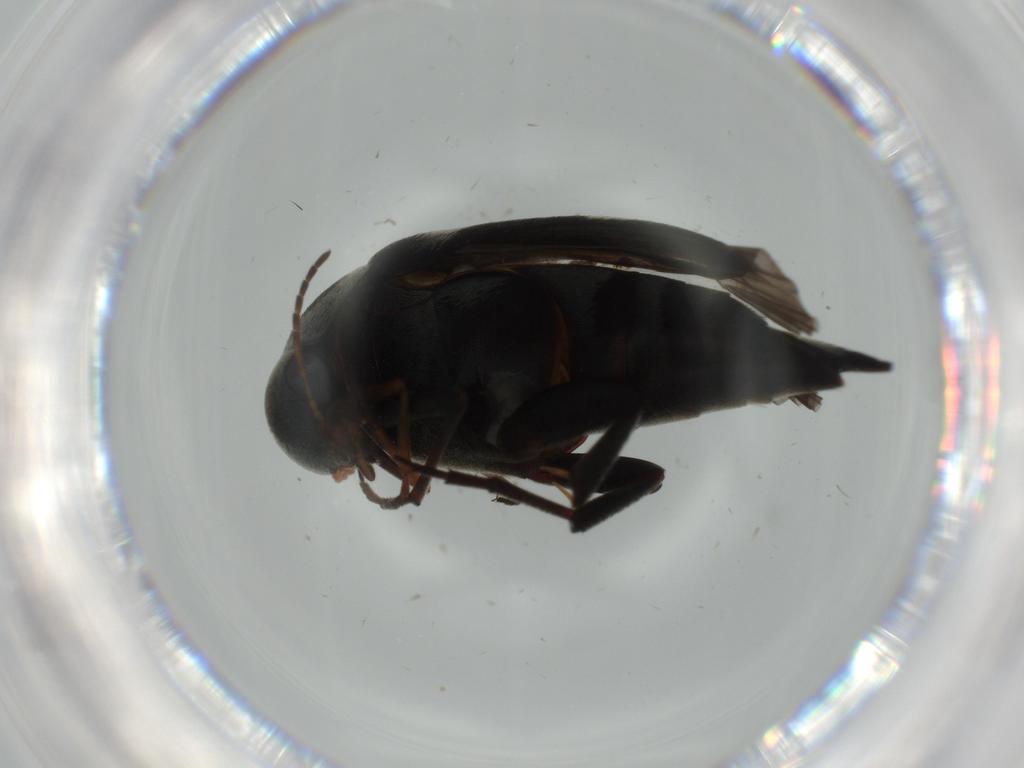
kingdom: Animalia
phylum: Arthropoda
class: Insecta
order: Coleoptera
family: Mordellidae
